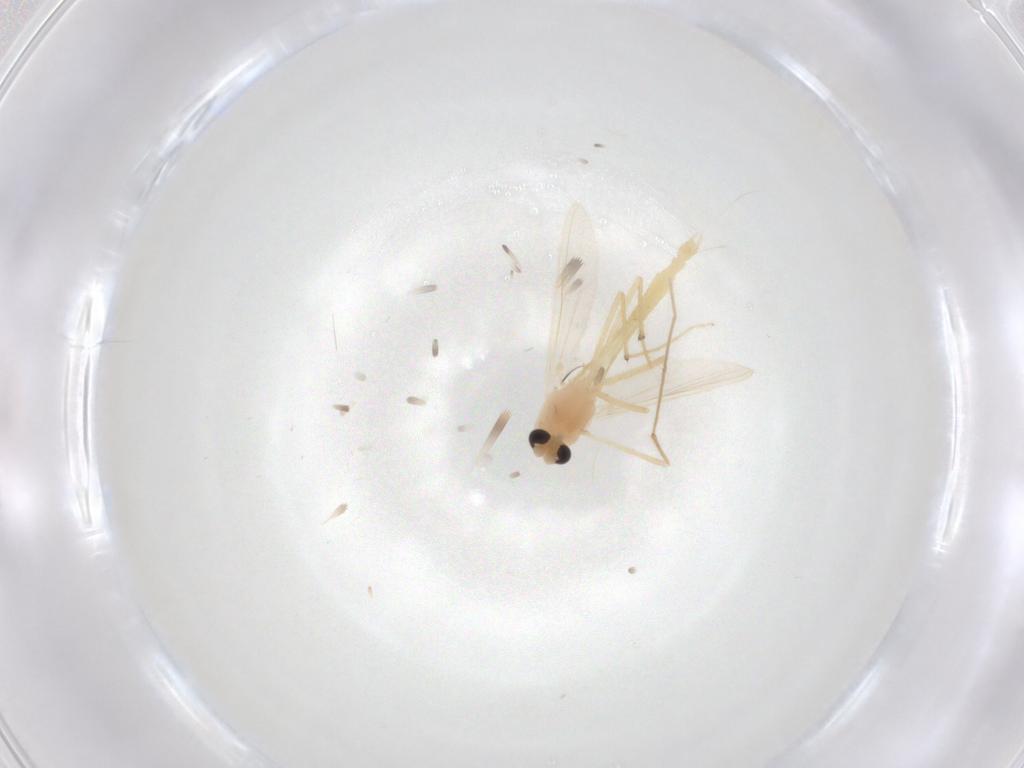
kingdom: Animalia
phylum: Arthropoda
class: Insecta
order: Diptera
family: Chironomidae
